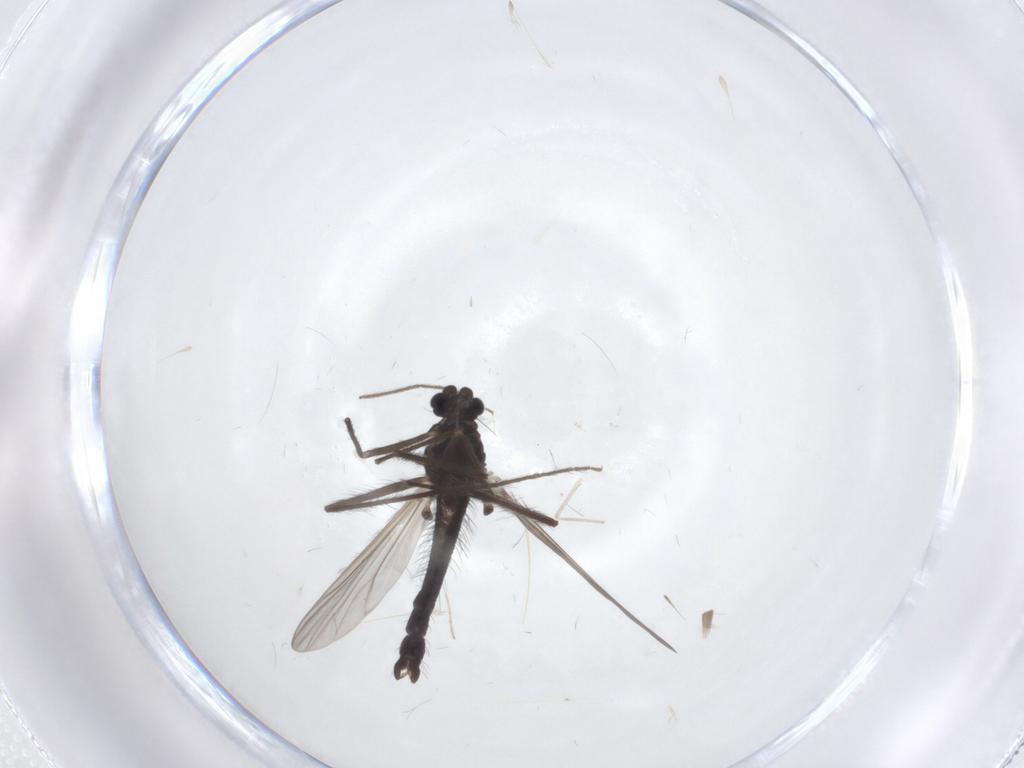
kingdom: Animalia
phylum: Arthropoda
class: Insecta
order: Diptera
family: Chironomidae
